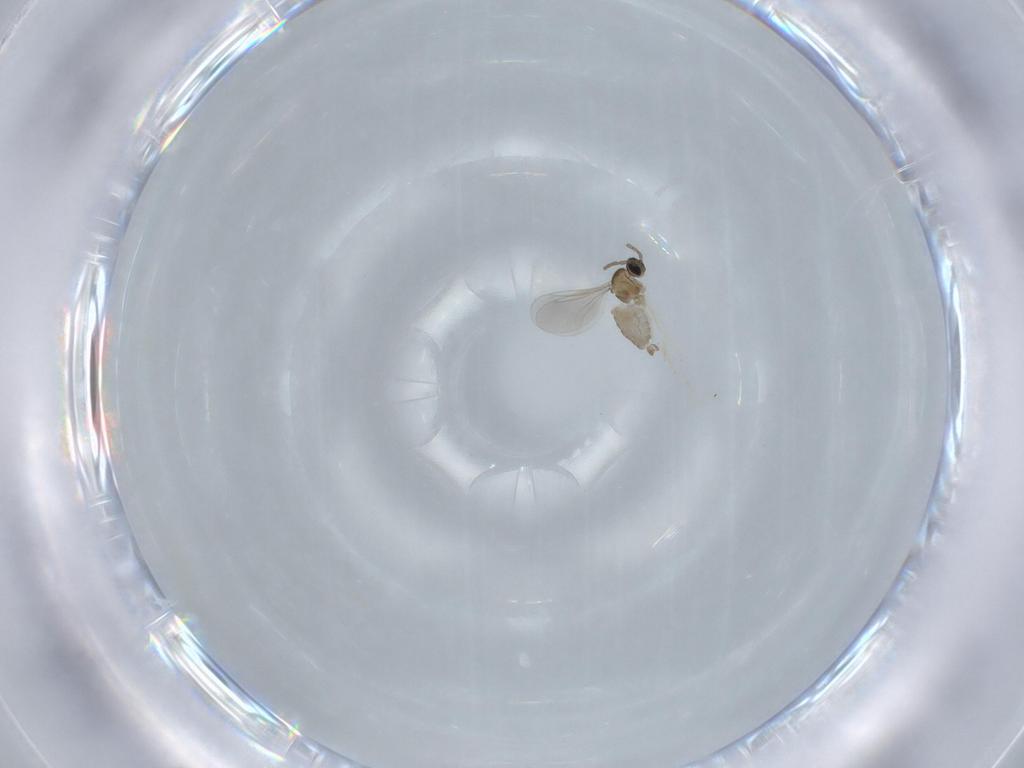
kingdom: Animalia
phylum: Arthropoda
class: Insecta
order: Diptera
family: Cecidomyiidae
